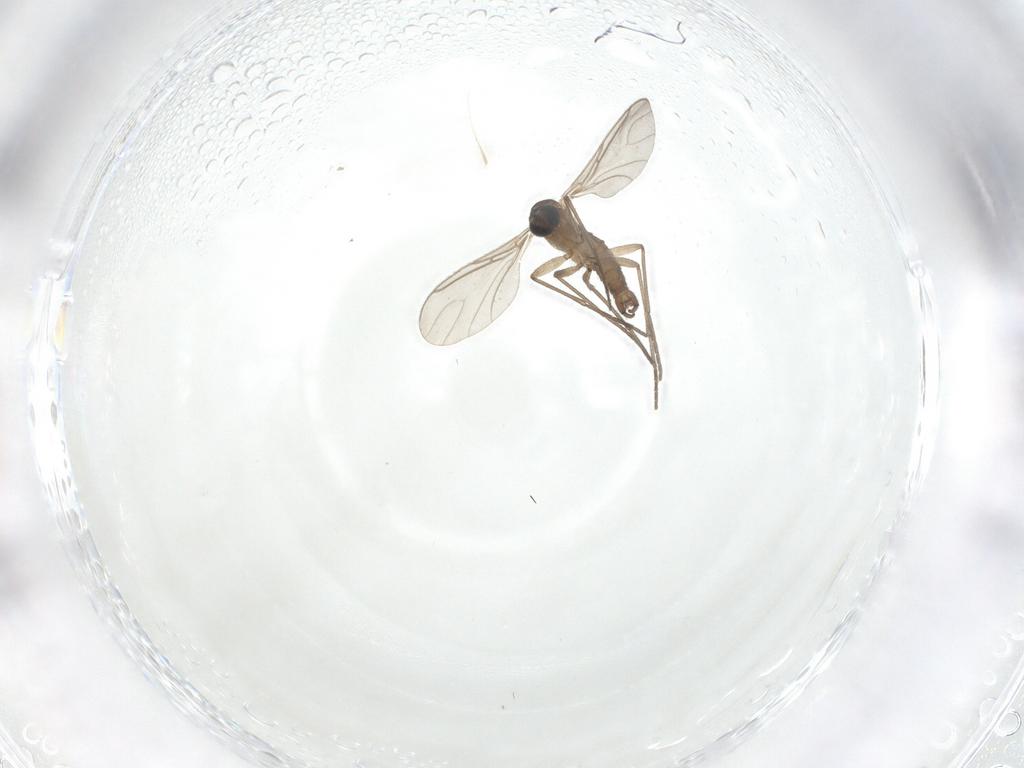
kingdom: Animalia
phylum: Arthropoda
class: Insecta
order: Diptera
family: Sciaridae
